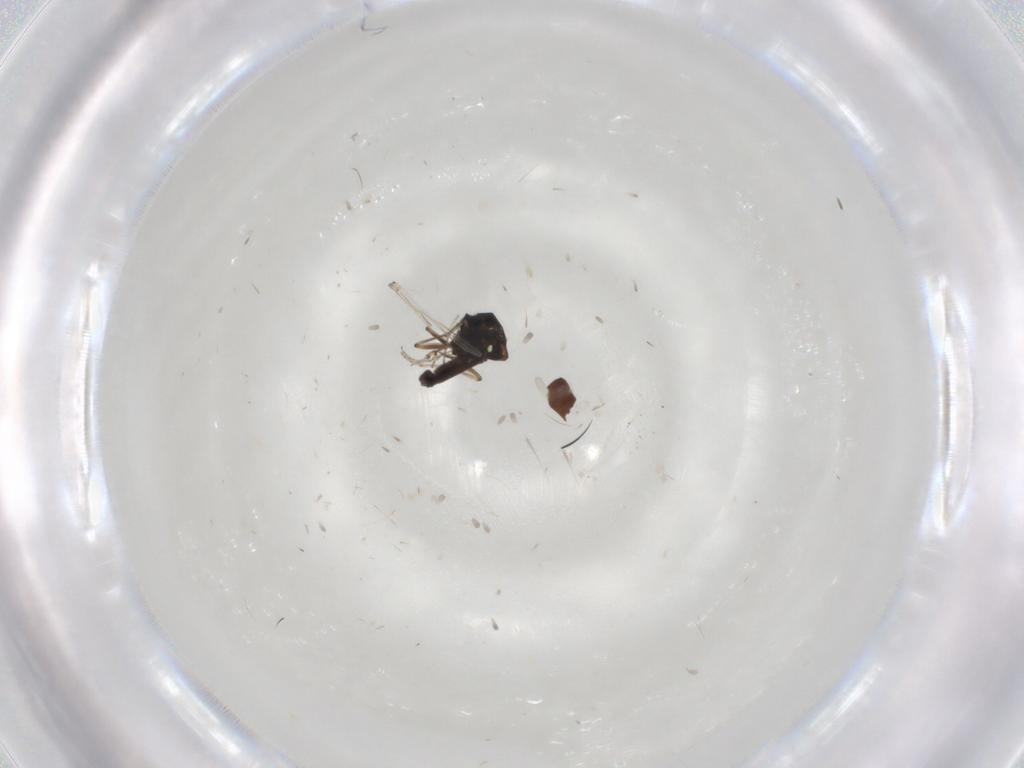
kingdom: Animalia
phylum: Arthropoda
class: Insecta
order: Diptera
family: Ceratopogonidae
